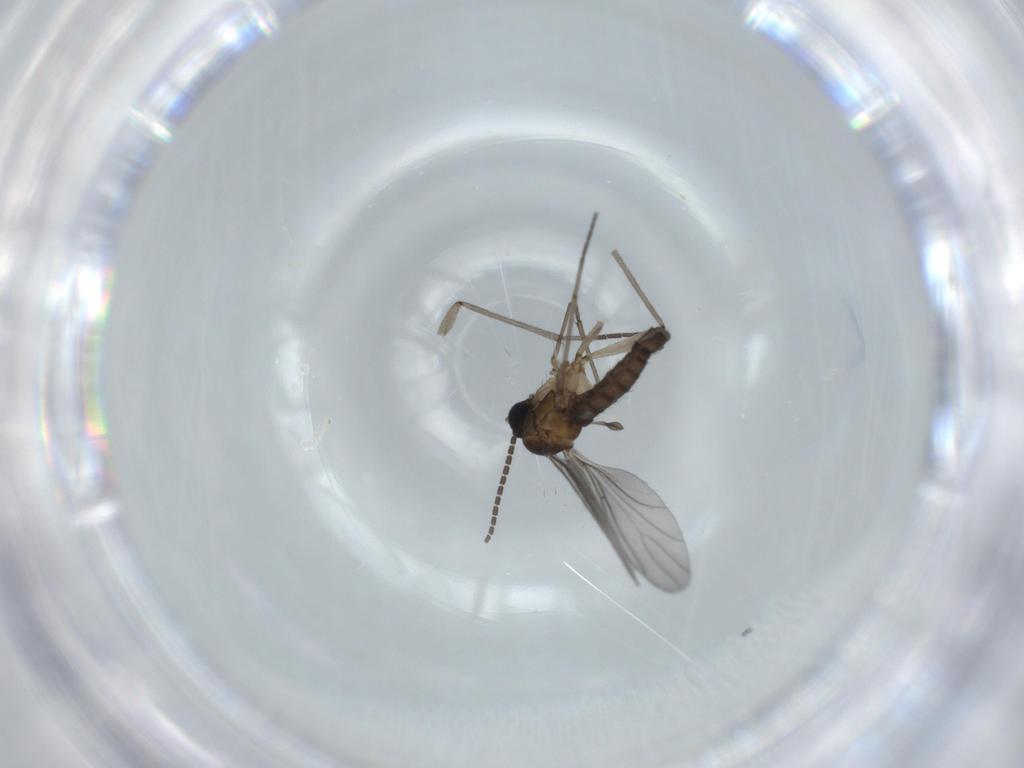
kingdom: Animalia
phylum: Arthropoda
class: Insecta
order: Diptera
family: Sciaridae
